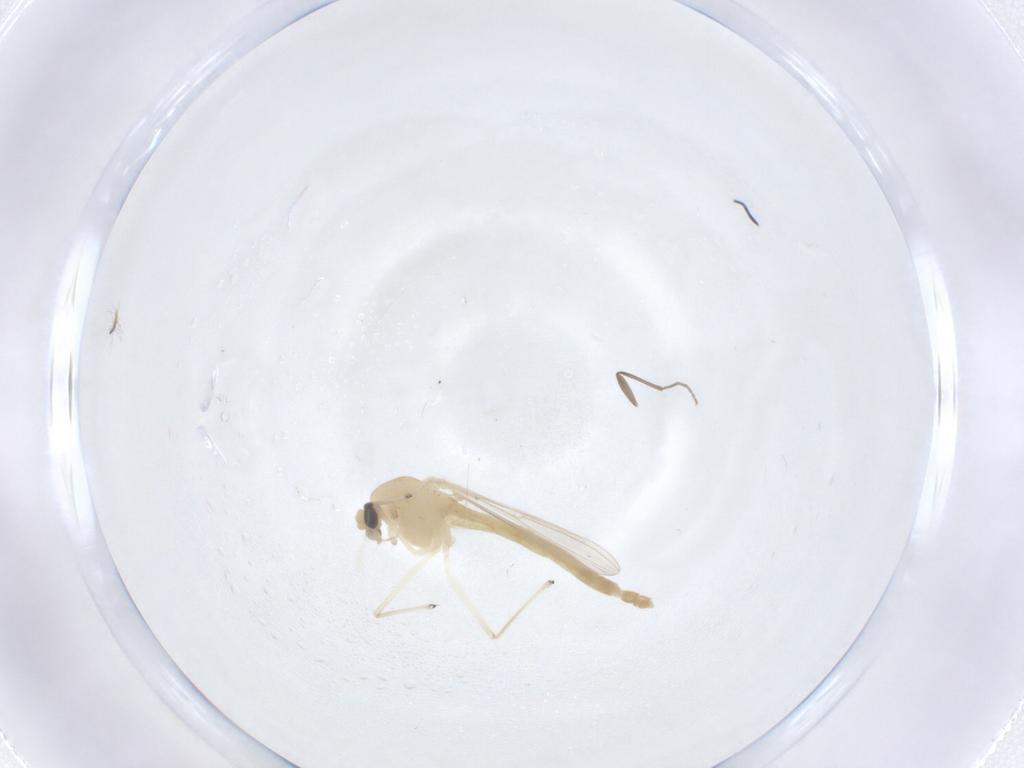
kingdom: Animalia
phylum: Arthropoda
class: Insecta
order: Diptera
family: Chironomidae
